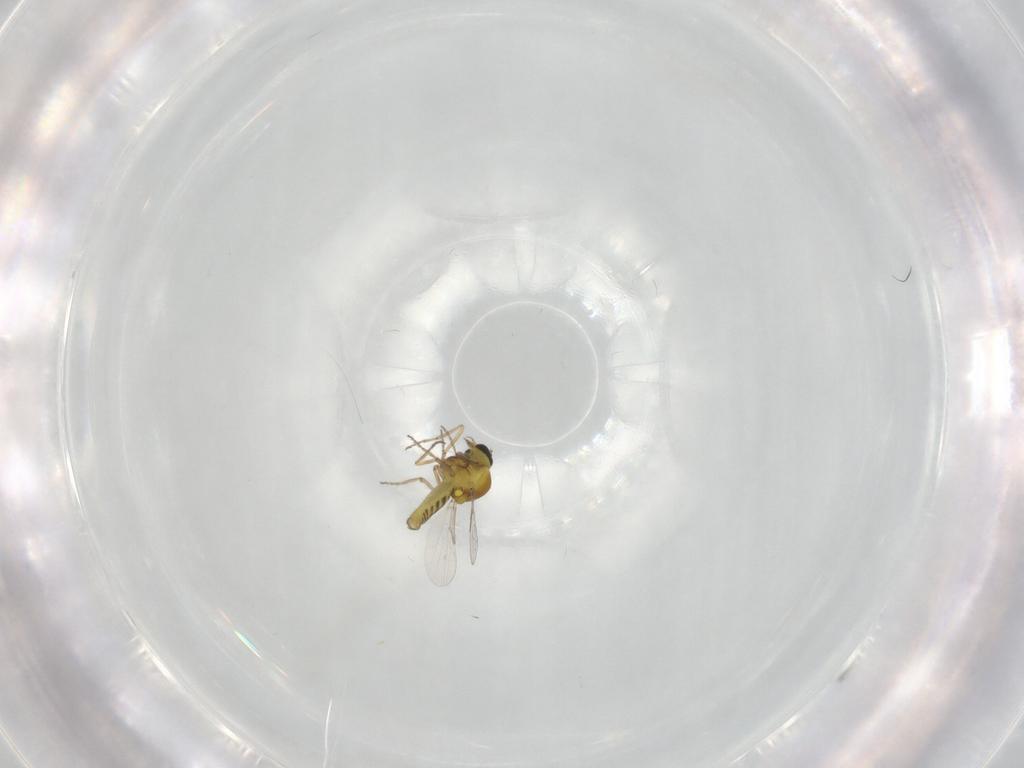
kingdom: Animalia
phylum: Arthropoda
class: Insecta
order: Diptera
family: Ceratopogonidae
